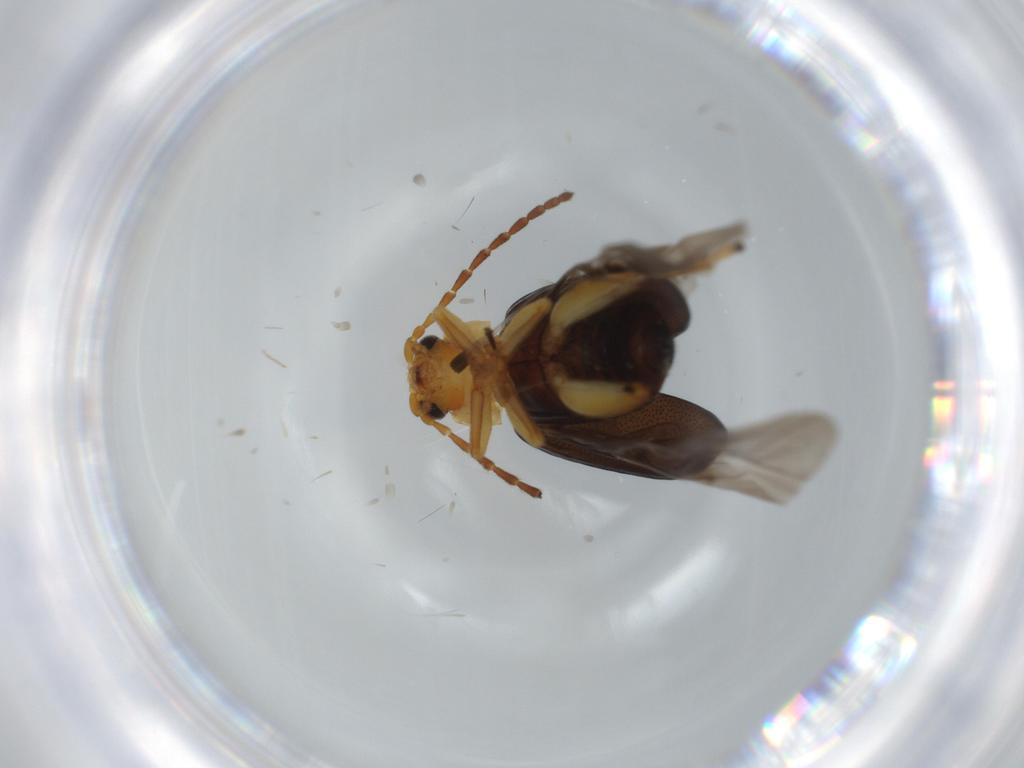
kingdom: Animalia
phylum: Arthropoda
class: Insecta
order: Coleoptera
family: Chrysomelidae
